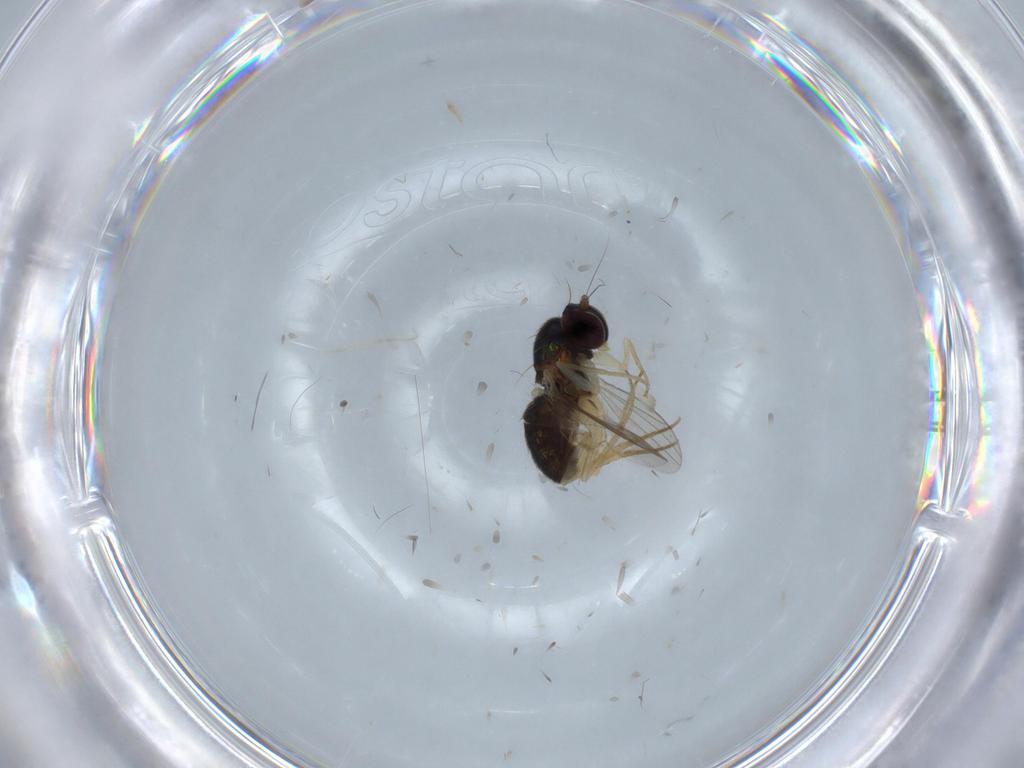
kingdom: Animalia
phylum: Arthropoda
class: Insecta
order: Diptera
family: Dolichopodidae
